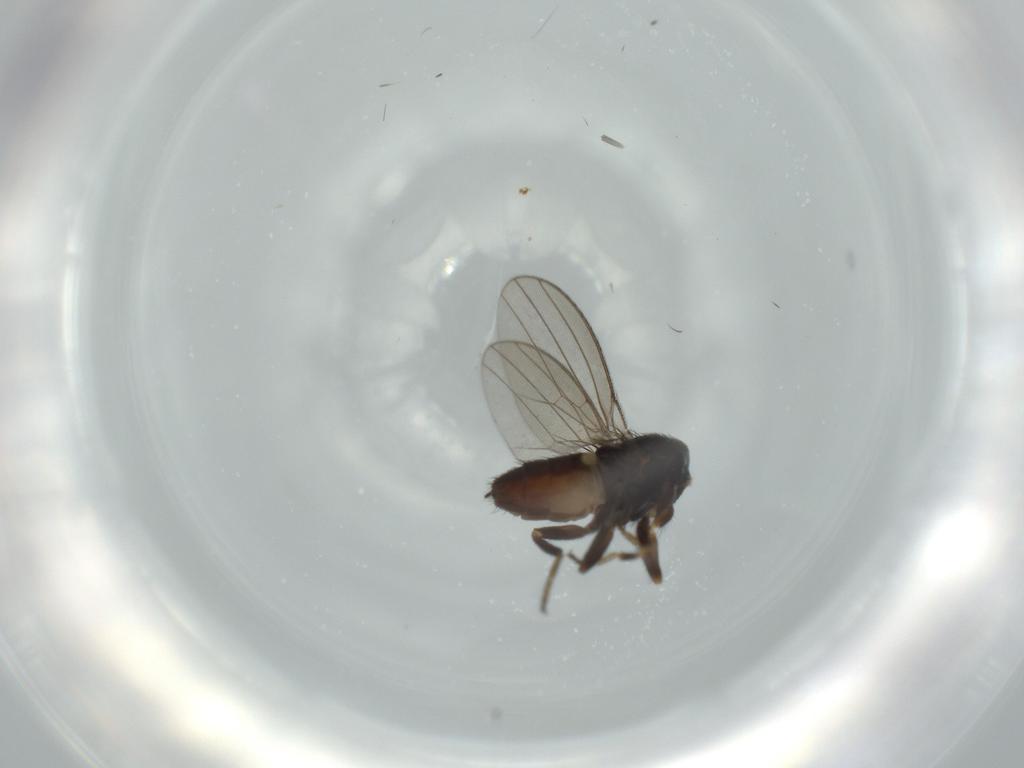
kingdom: Animalia
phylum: Arthropoda
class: Insecta
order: Diptera
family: Milichiidae
